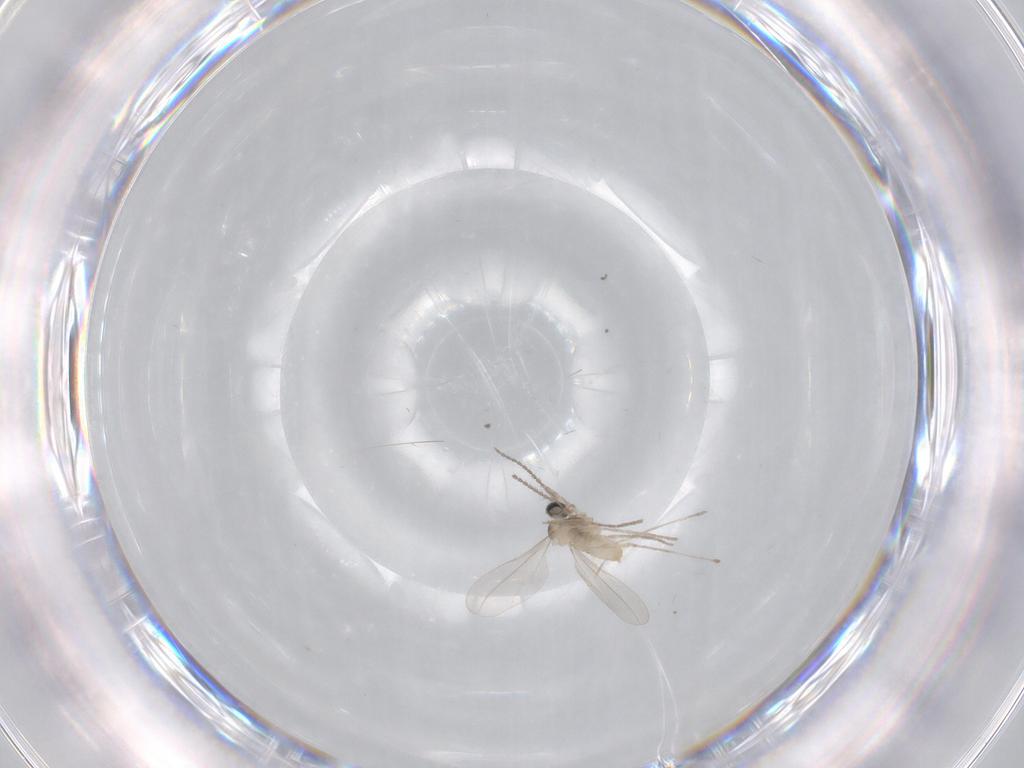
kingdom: Animalia
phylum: Arthropoda
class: Insecta
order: Diptera
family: Cecidomyiidae
